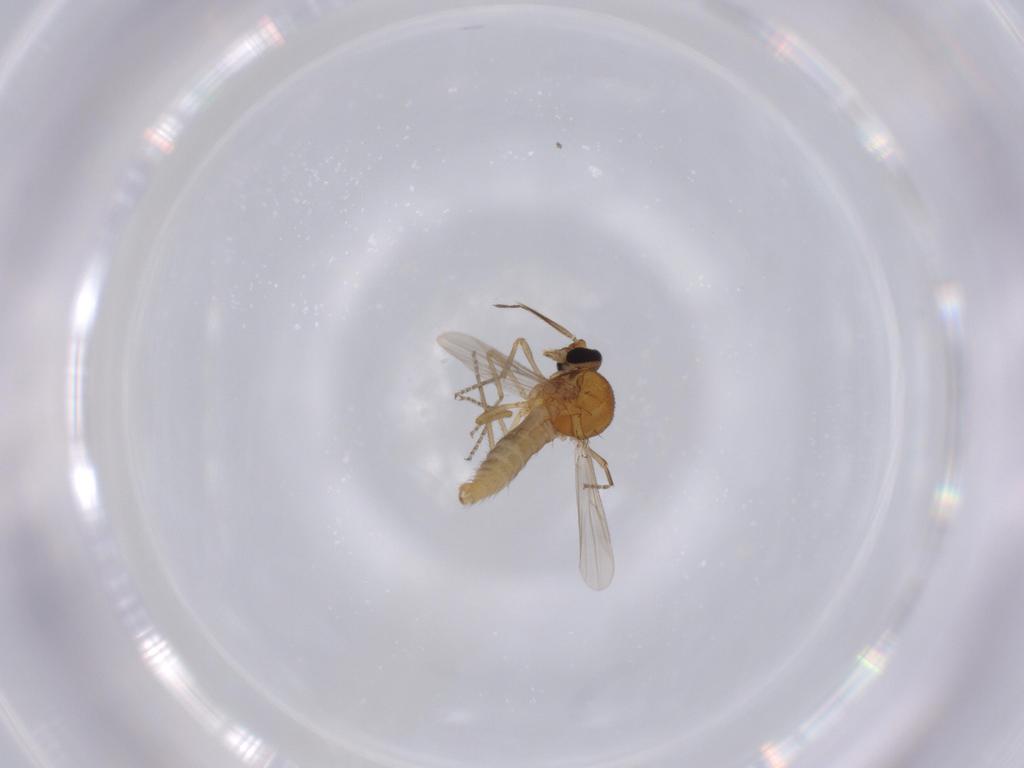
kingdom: Animalia
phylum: Arthropoda
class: Insecta
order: Diptera
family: Ceratopogonidae
